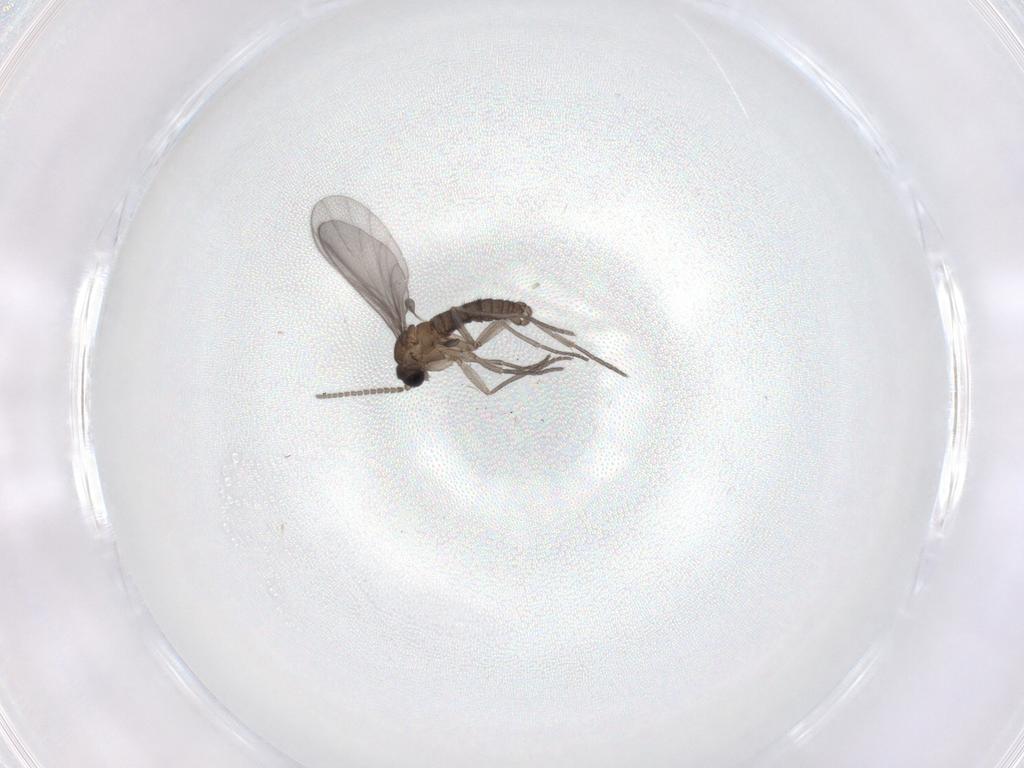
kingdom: Animalia
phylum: Arthropoda
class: Insecta
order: Diptera
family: Sciaridae
